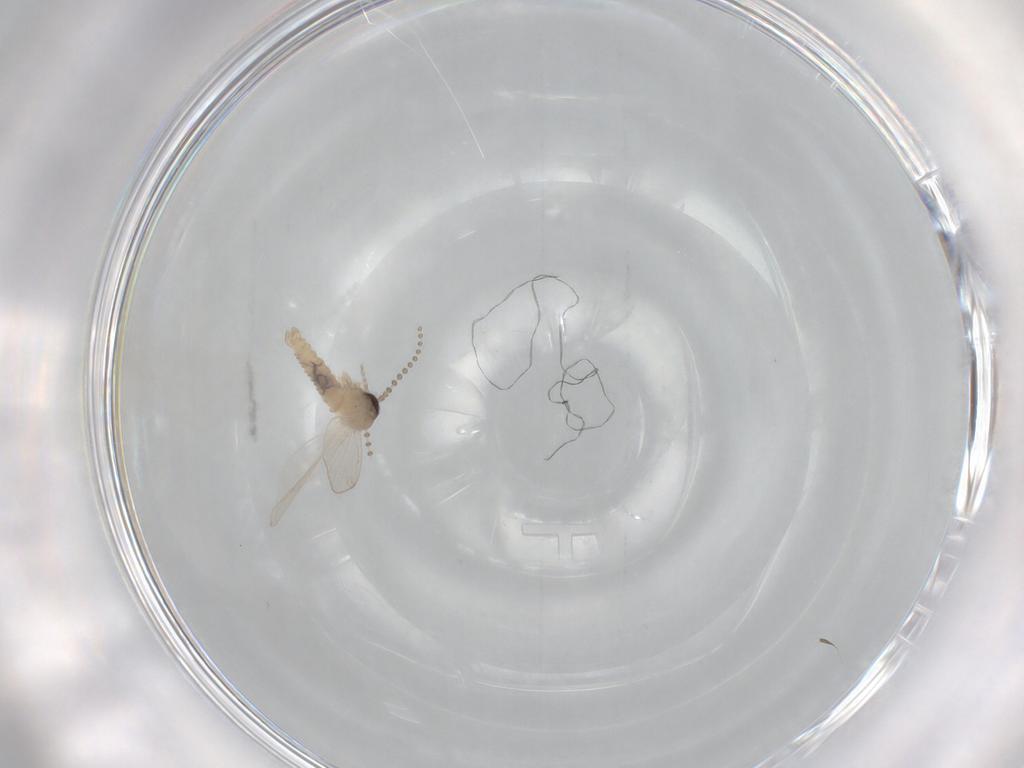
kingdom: Animalia
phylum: Arthropoda
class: Insecta
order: Diptera
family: Psychodidae
